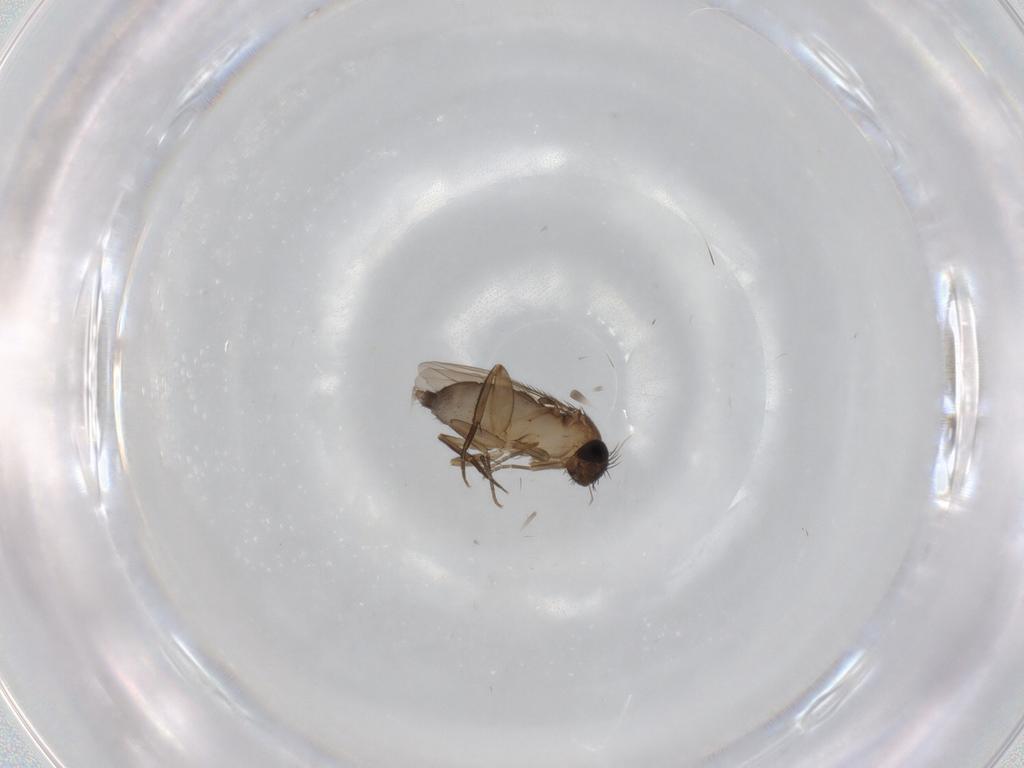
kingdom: Animalia
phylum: Arthropoda
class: Insecta
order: Diptera
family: Phoridae
